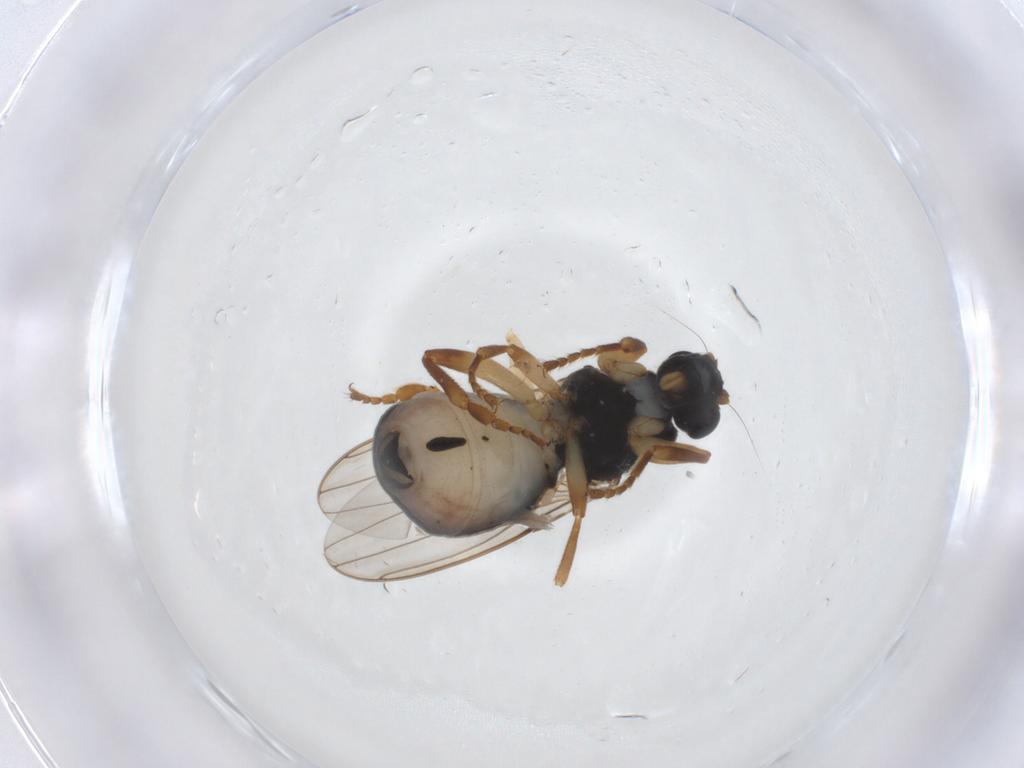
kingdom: Animalia
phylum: Arthropoda
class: Insecta
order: Diptera
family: Sphaeroceridae
